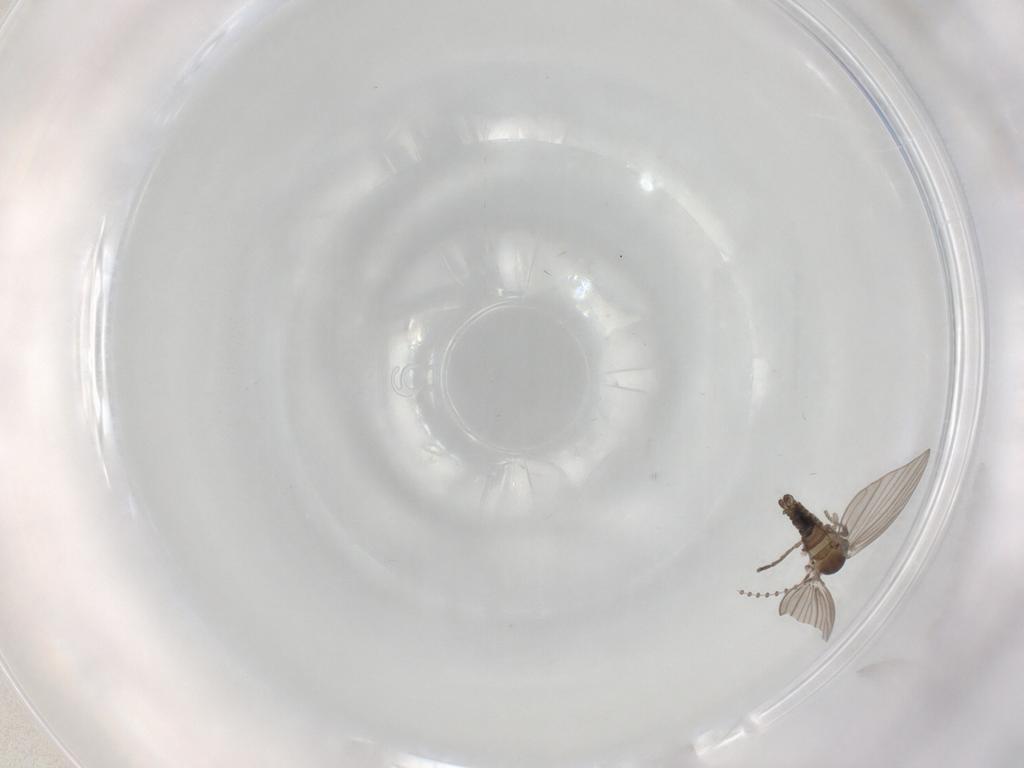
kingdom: Animalia
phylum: Arthropoda
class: Insecta
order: Diptera
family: Psychodidae
